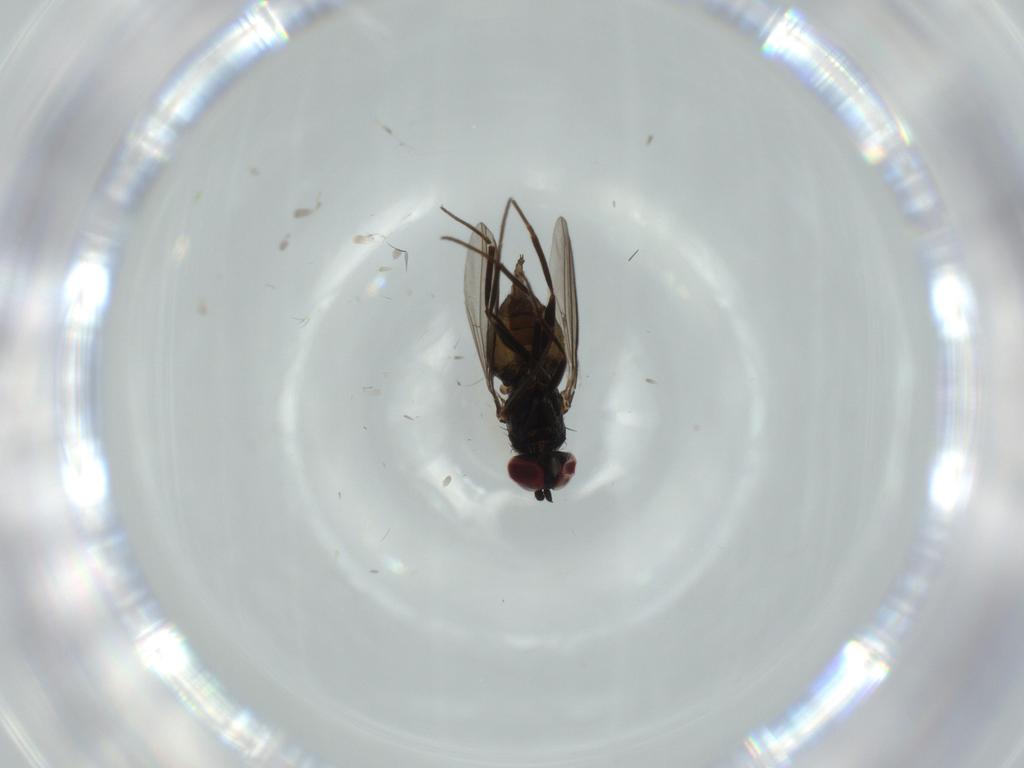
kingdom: Animalia
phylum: Arthropoda
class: Insecta
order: Diptera
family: Dolichopodidae
